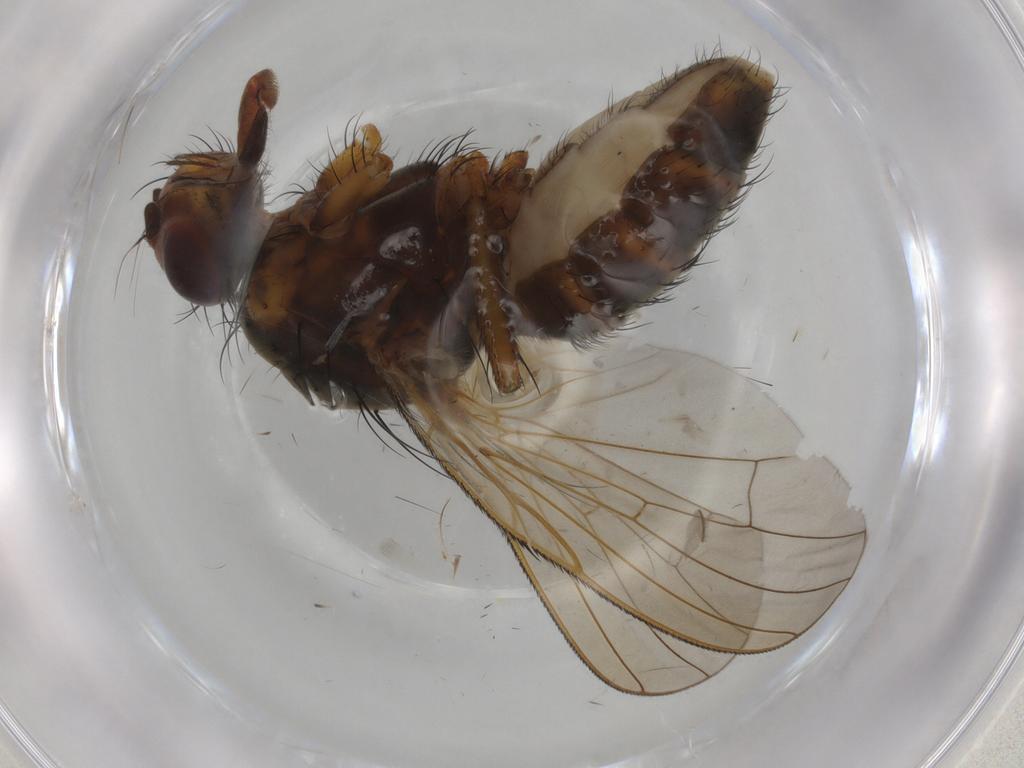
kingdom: Animalia
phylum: Arthropoda
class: Insecta
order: Diptera
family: Anthomyiidae
